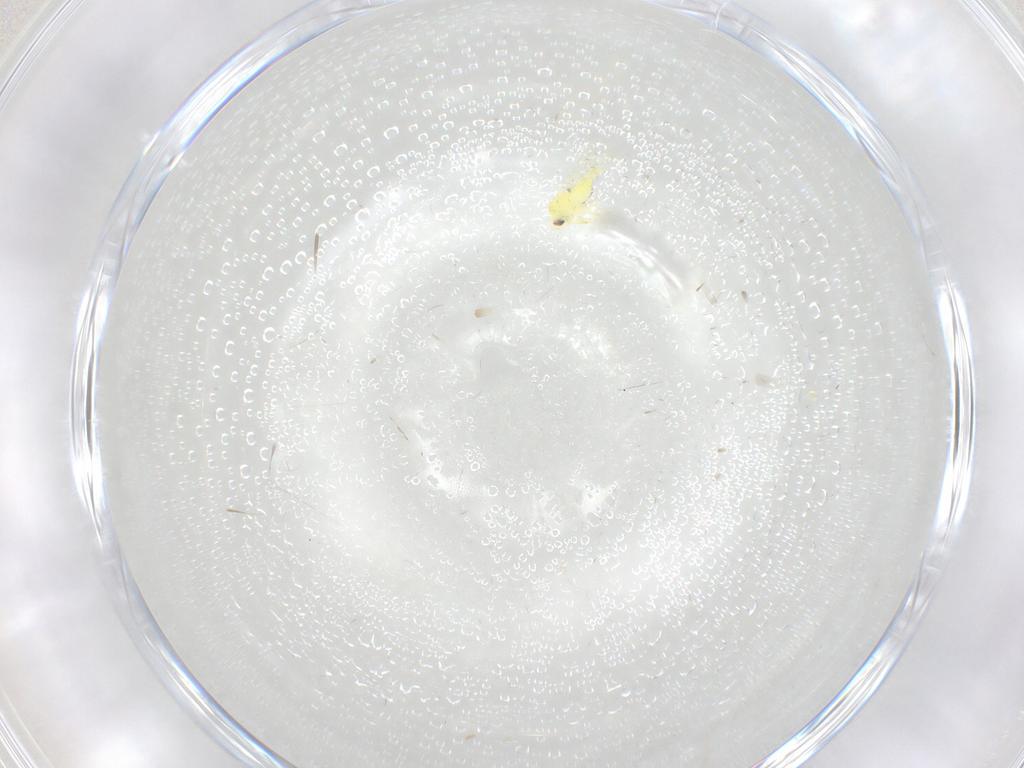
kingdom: Animalia
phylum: Arthropoda
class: Insecta
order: Hemiptera
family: Aleyrodidae
